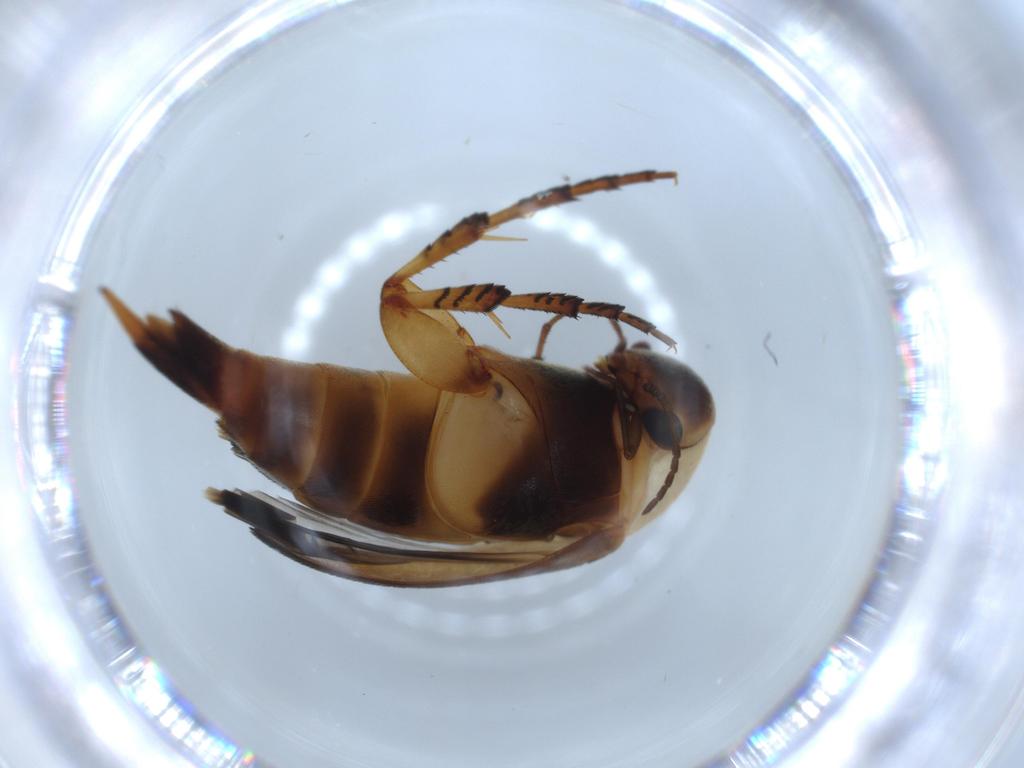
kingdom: Animalia
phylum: Arthropoda
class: Insecta
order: Coleoptera
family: Mordellidae
